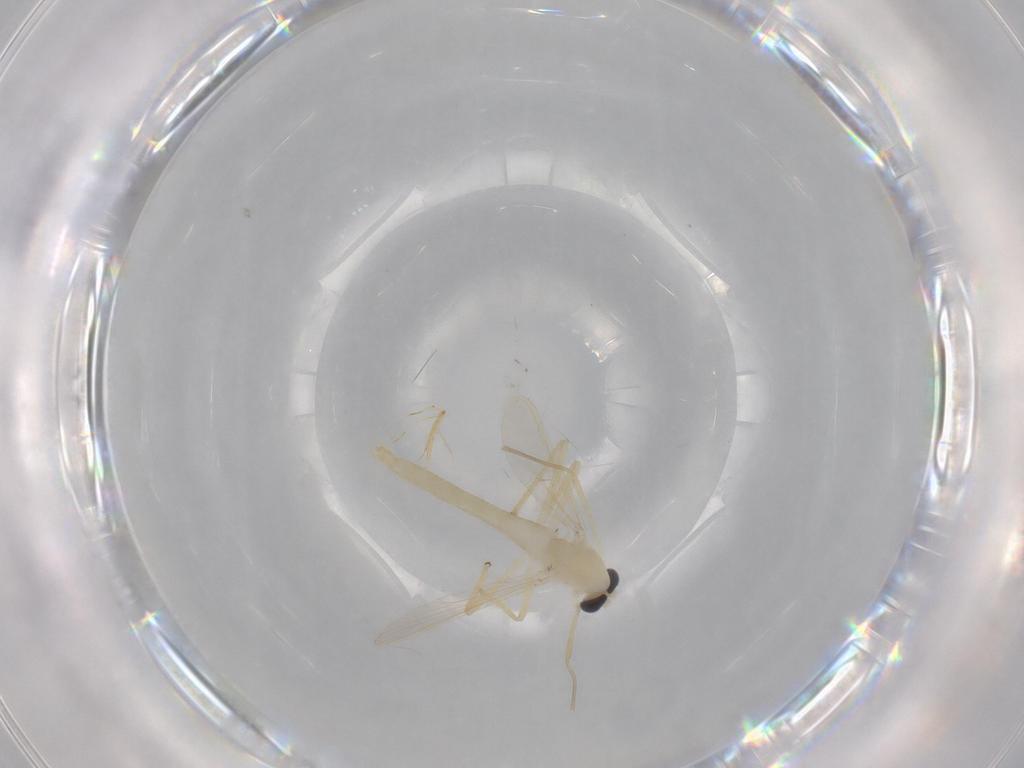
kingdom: Animalia
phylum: Arthropoda
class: Insecta
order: Diptera
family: Chironomidae
